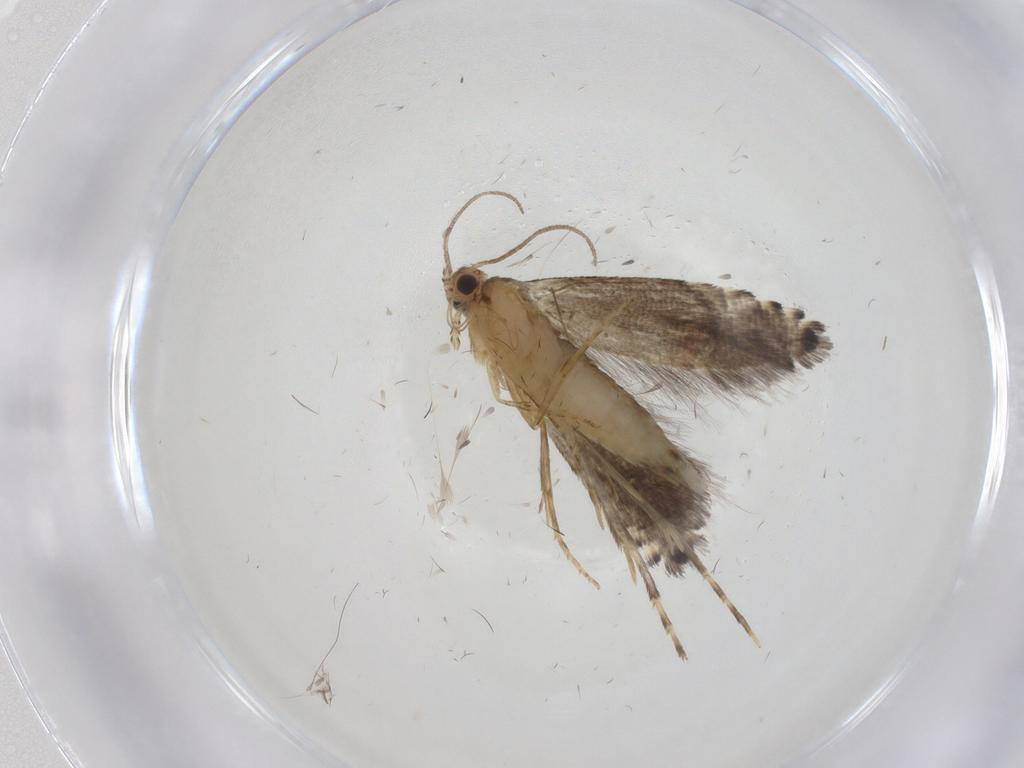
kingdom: Animalia
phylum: Arthropoda
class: Insecta
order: Lepidoptera
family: Glyphipterigidae
